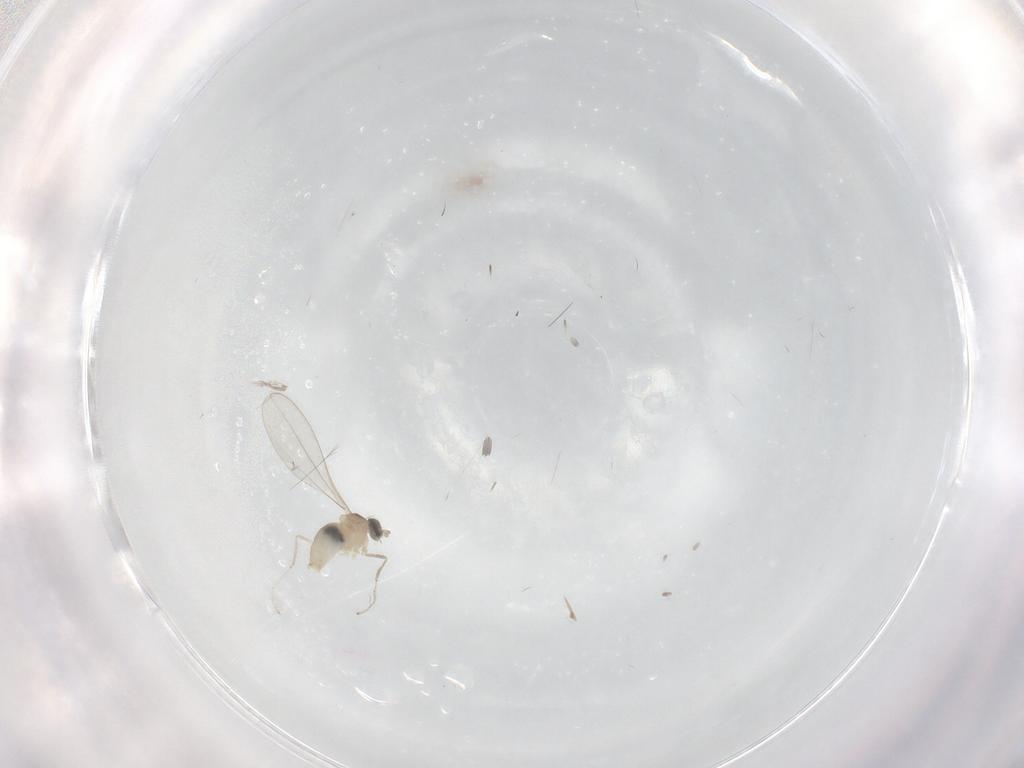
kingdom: Animalia
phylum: Arthropoda
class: Insecta
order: Diptera
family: Cecidomyiidae
